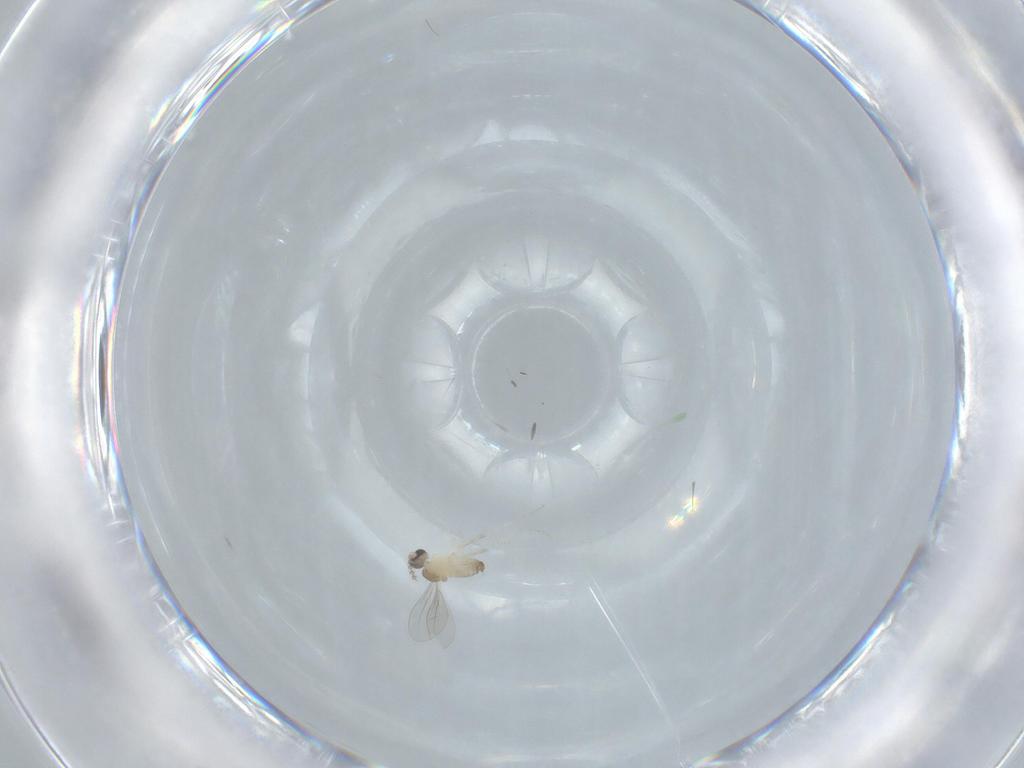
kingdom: Animalia
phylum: Arthropoda
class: Insecta
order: Diptera
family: Cecidomyiidae
